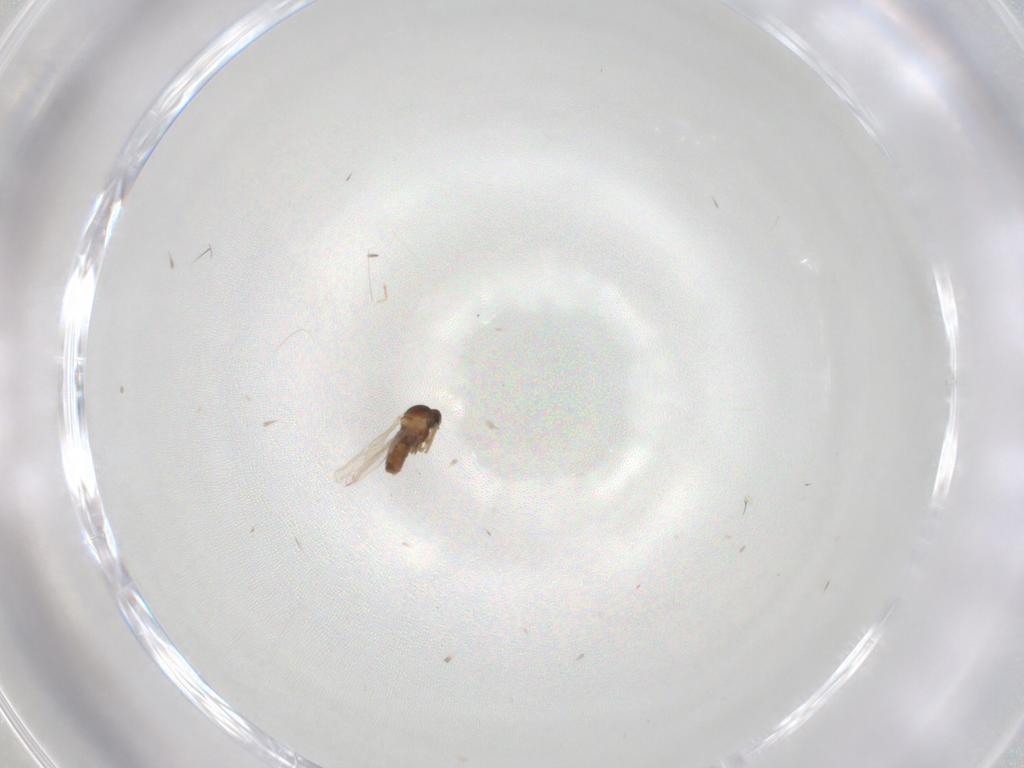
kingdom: Animalia
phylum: Arthropoda
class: Insecta
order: Diptera
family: Cecidomyiidae
